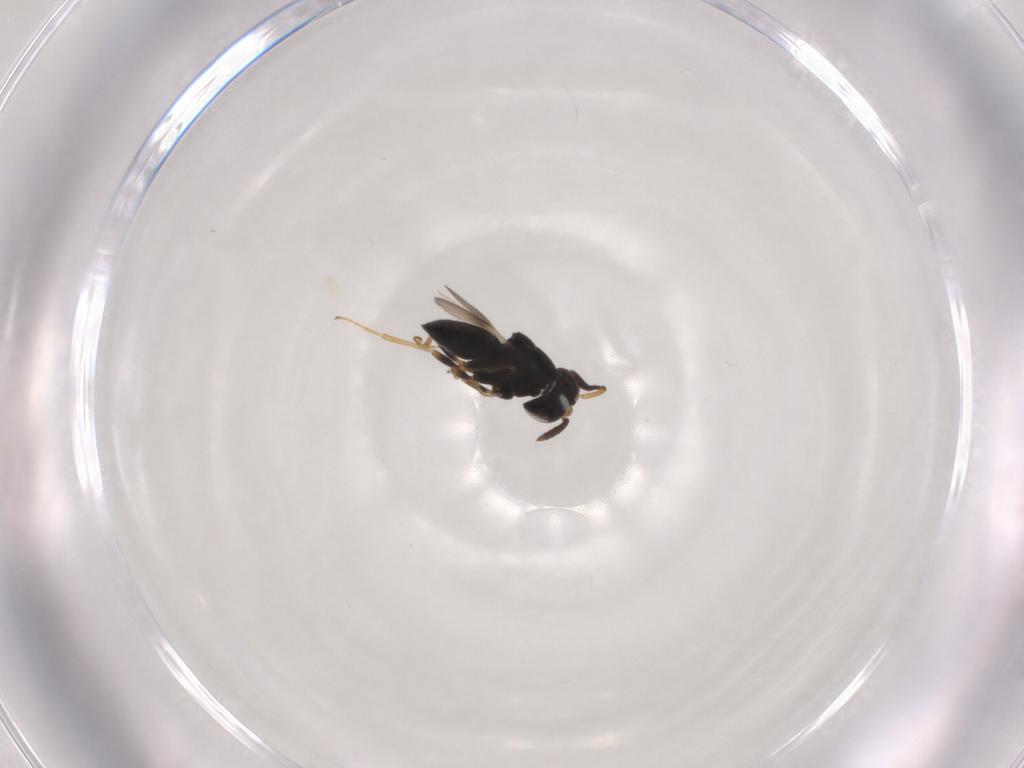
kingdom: Animalia
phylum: Arthropoda
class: Insecta
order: Hymenoptera
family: Scelionidae
